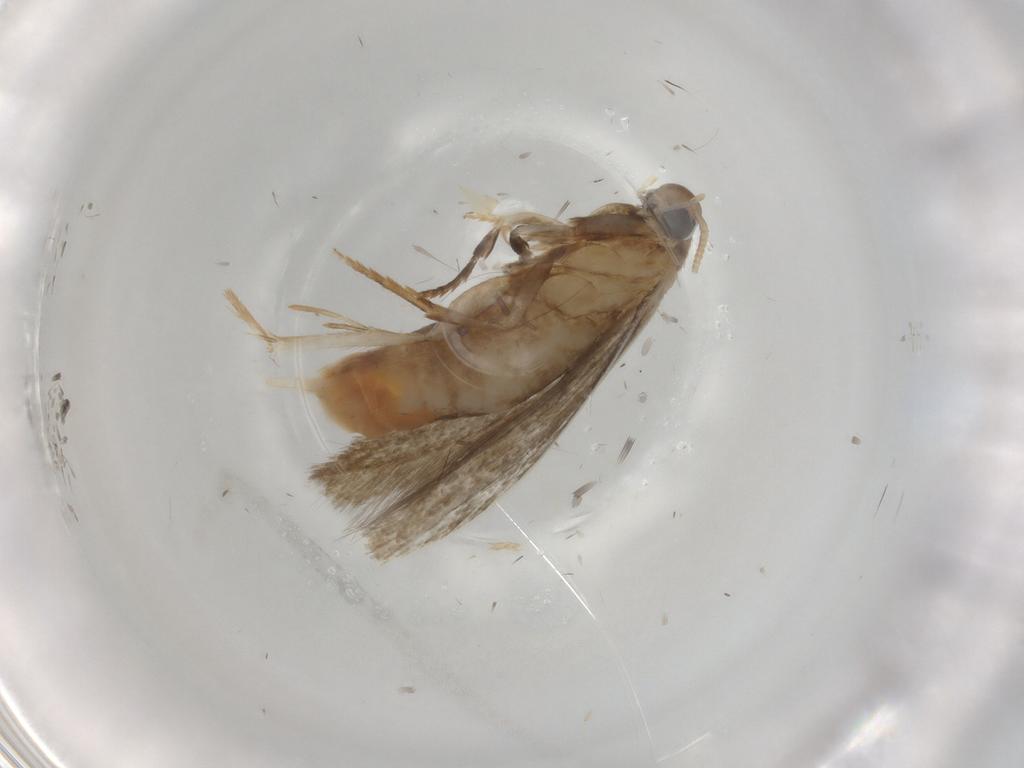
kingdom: Animalia
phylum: Arthropoda
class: Insecta
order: Lepidoptera
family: Coleophoridae
